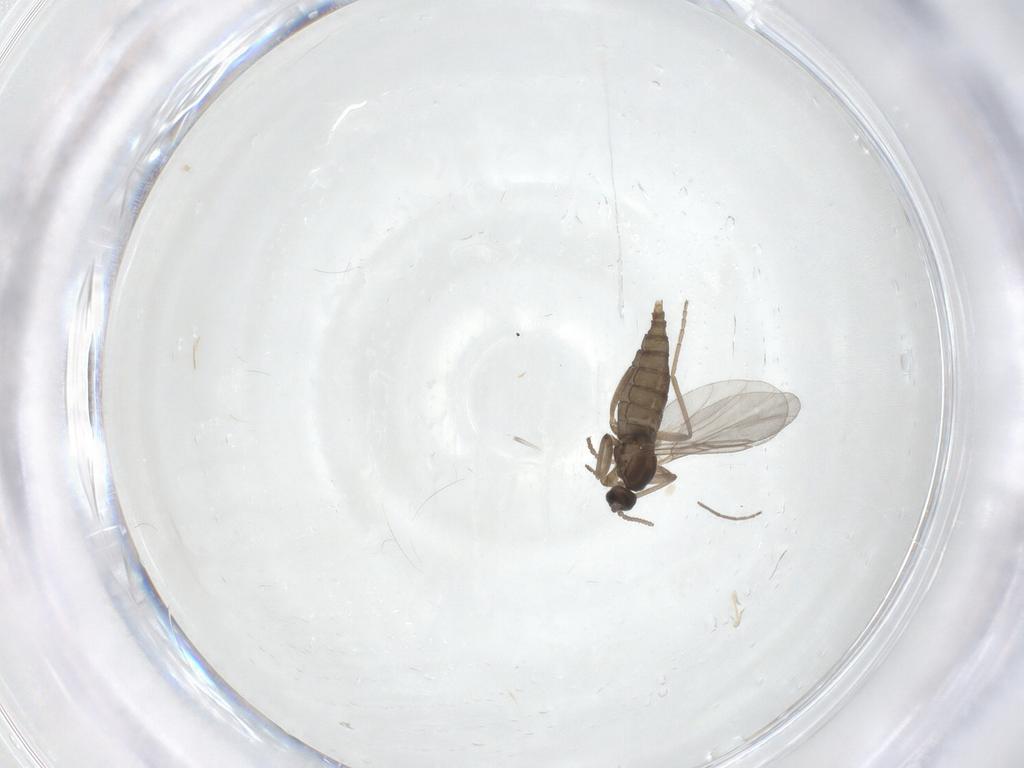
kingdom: Animalia
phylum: Arthropoda
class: Insecta
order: Diptera
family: Cecidomyiidae
